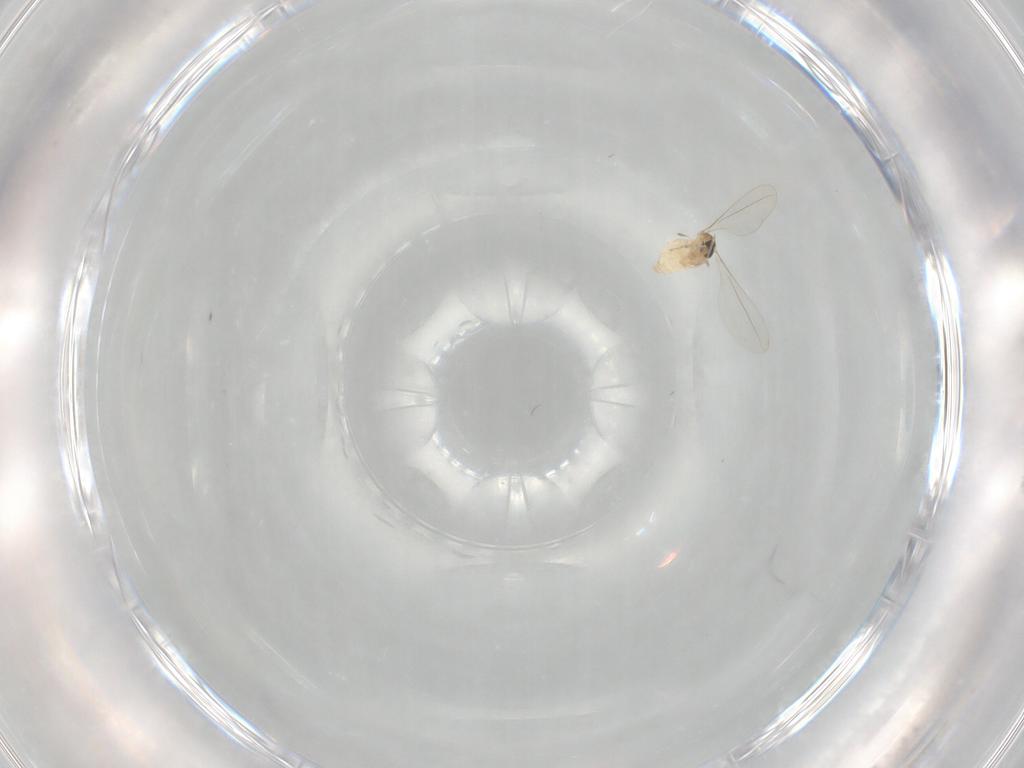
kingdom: Animalia
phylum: Arthropoda
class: Insecta
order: Diptera
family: Cecidomyiidae
